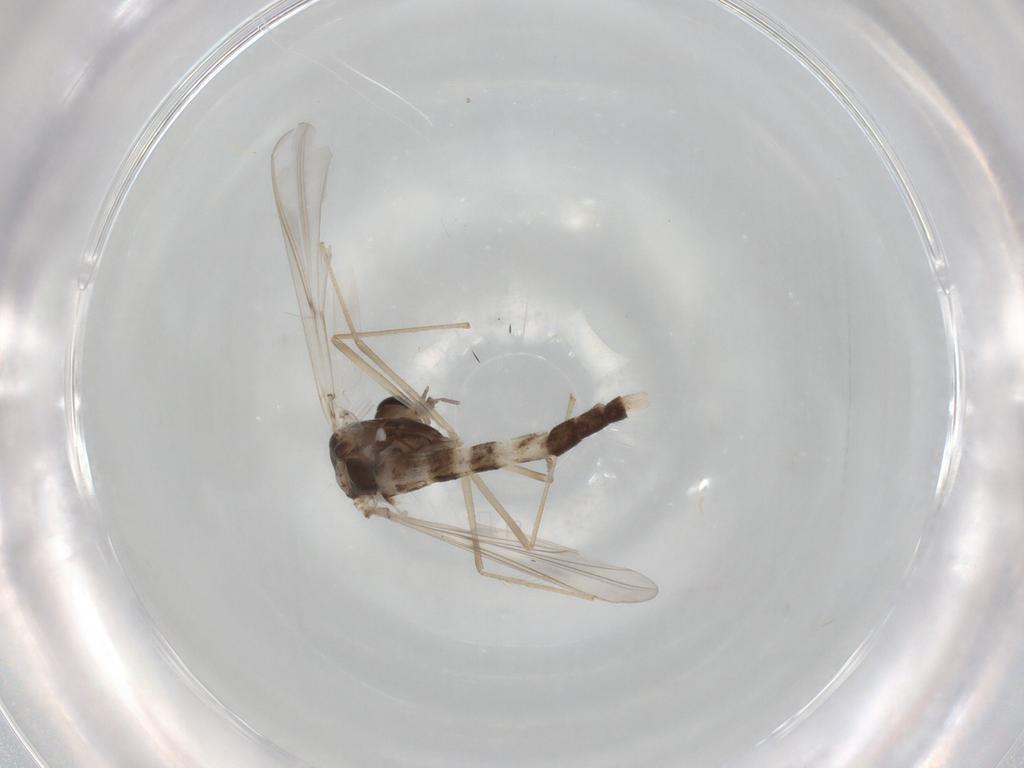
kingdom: Animalia
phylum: Arthropoda
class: Insecta
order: Diptera
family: Chironomidae
